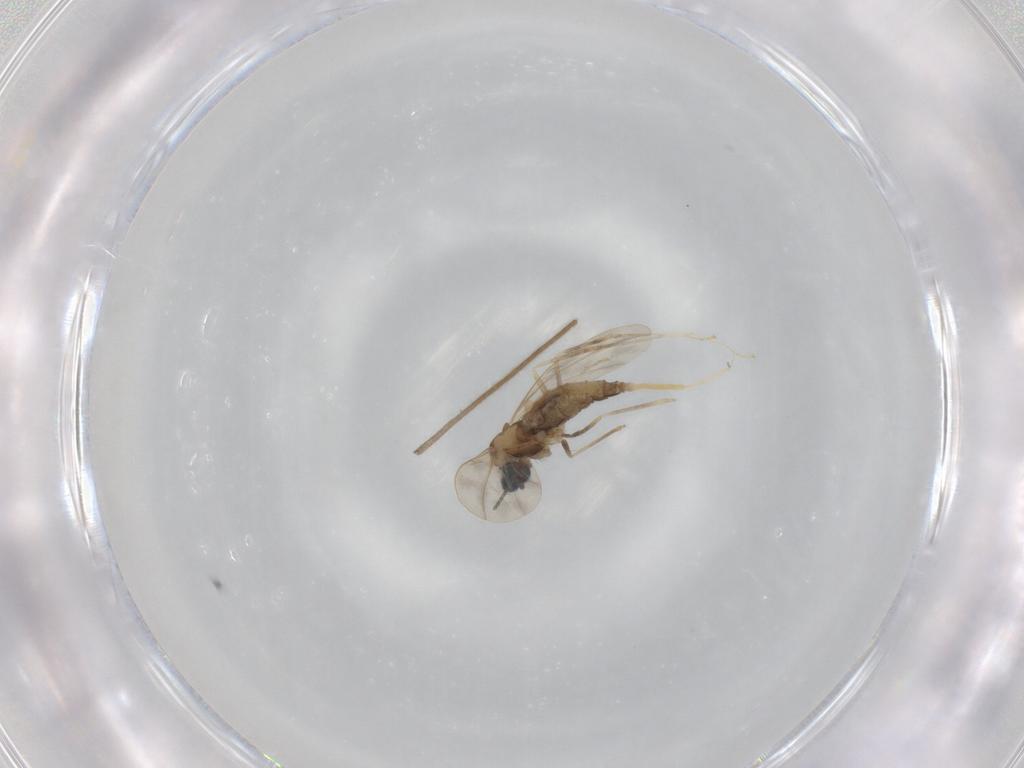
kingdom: Animalia
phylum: Arthropoda
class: Insecta
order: Diptera
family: Cecidomyiidae
